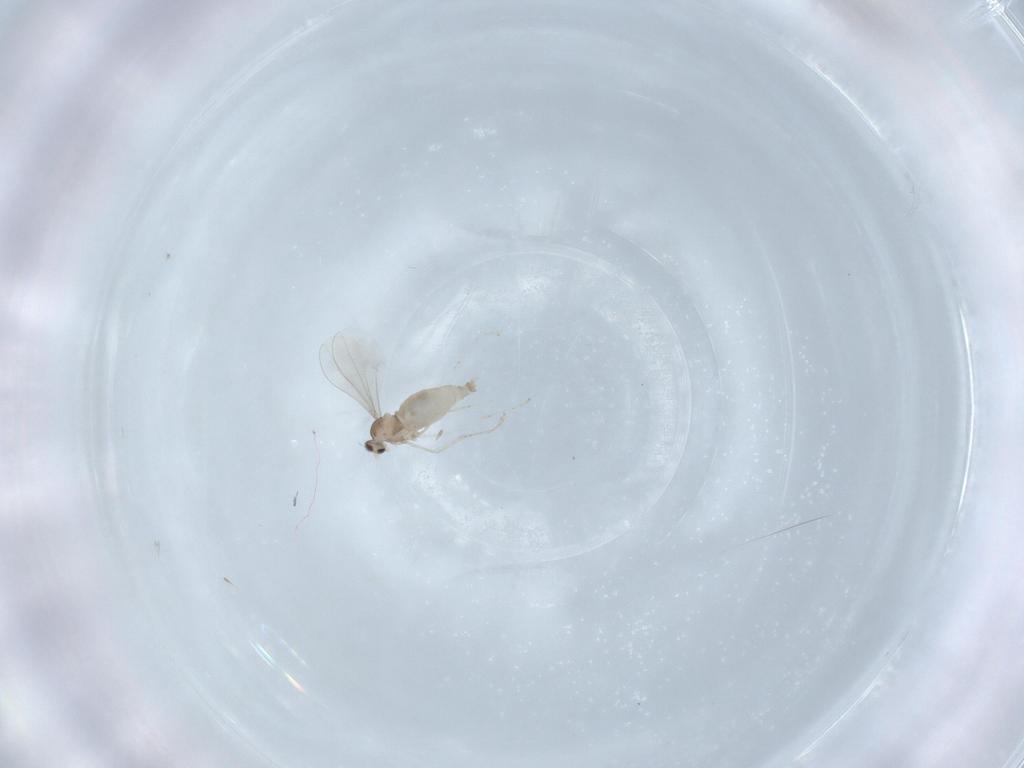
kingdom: Animalia
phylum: Arthropoda
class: Insecta
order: Diptera
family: Cecidomyiidae
